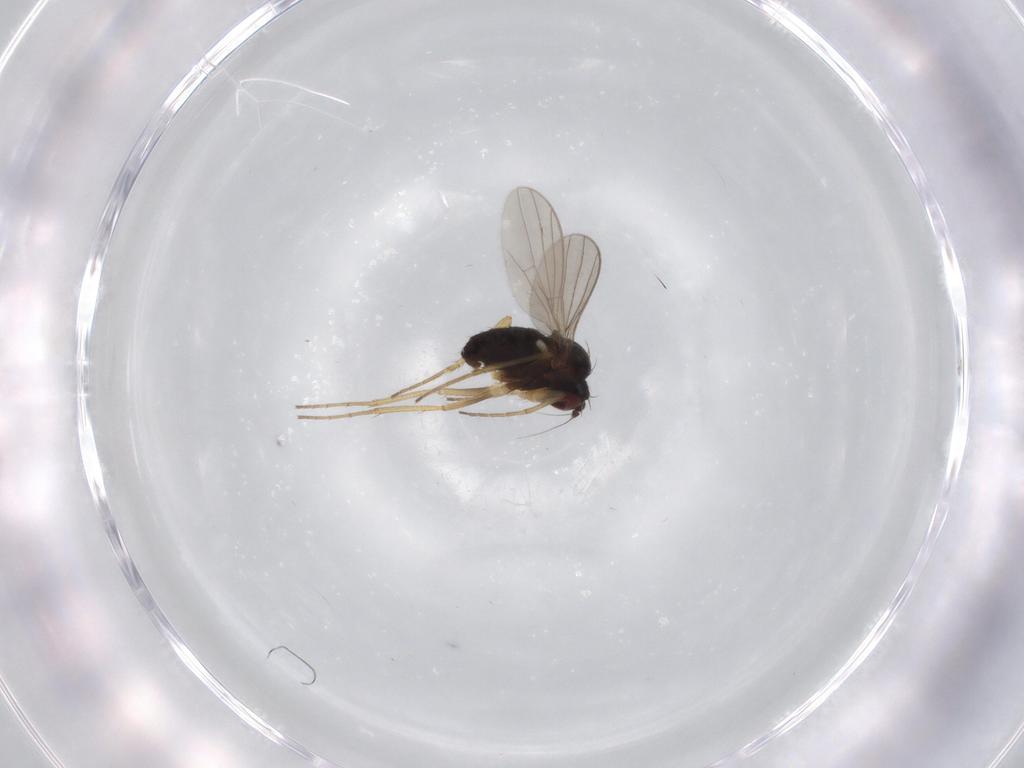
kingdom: Animalia
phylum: Arthropoda
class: Insecta
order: Diptera
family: Dolichopodidae
